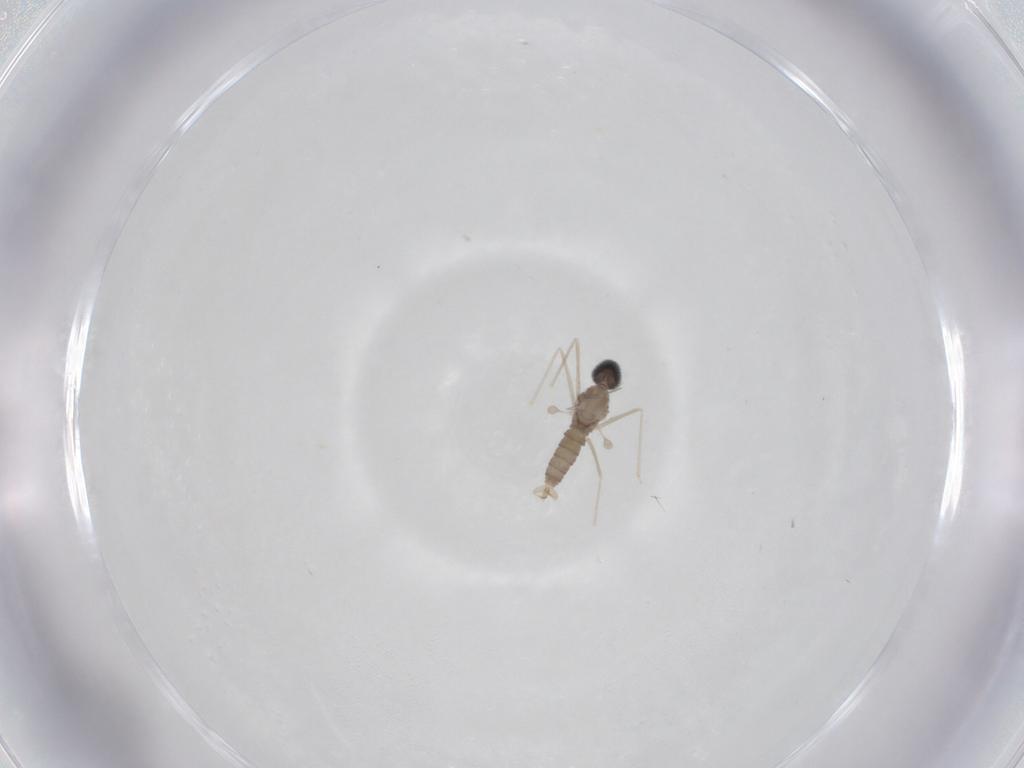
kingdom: Animalia
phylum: Arthropoda
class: Insecta
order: Diptera
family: Cecidomyiidae
